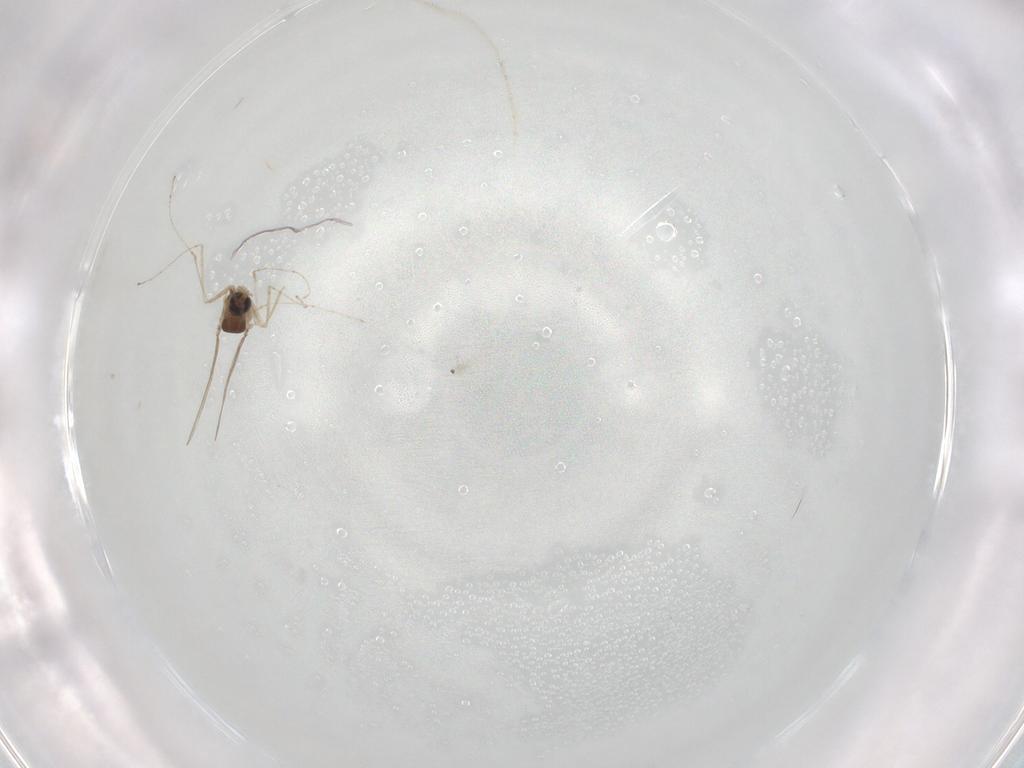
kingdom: Animalia
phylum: Arthropoda
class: Insecta
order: Diptera
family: Cecidomyiidae
